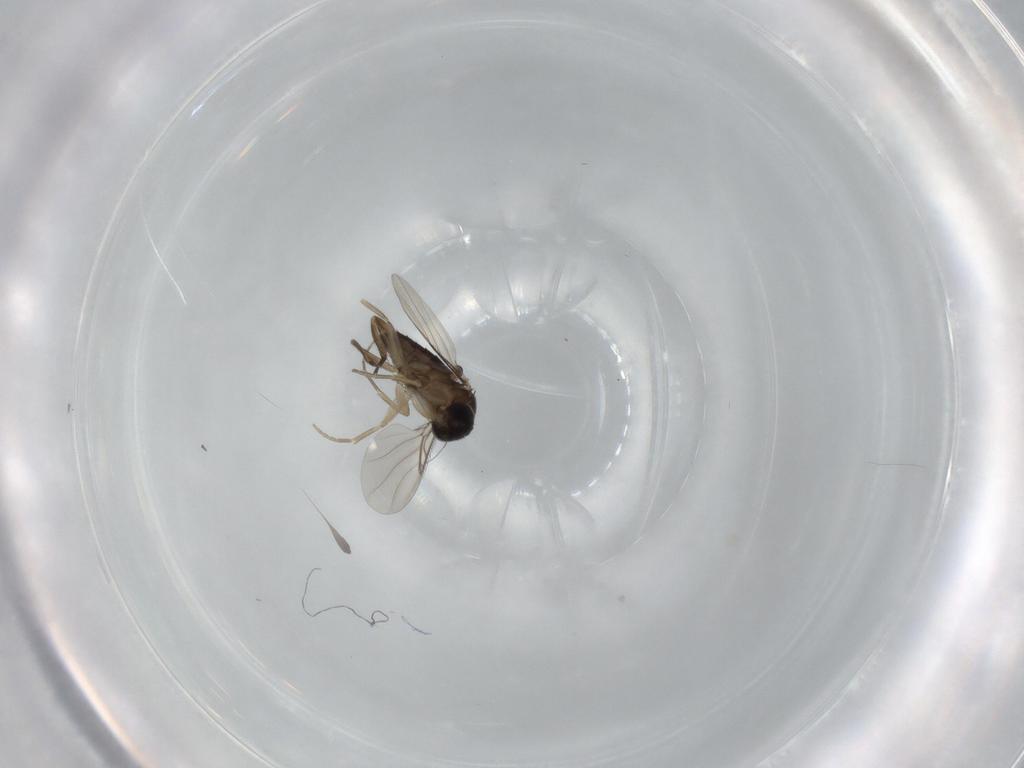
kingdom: Animalia
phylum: Arthropoda
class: Insecta
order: Diptera
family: Phoridae
